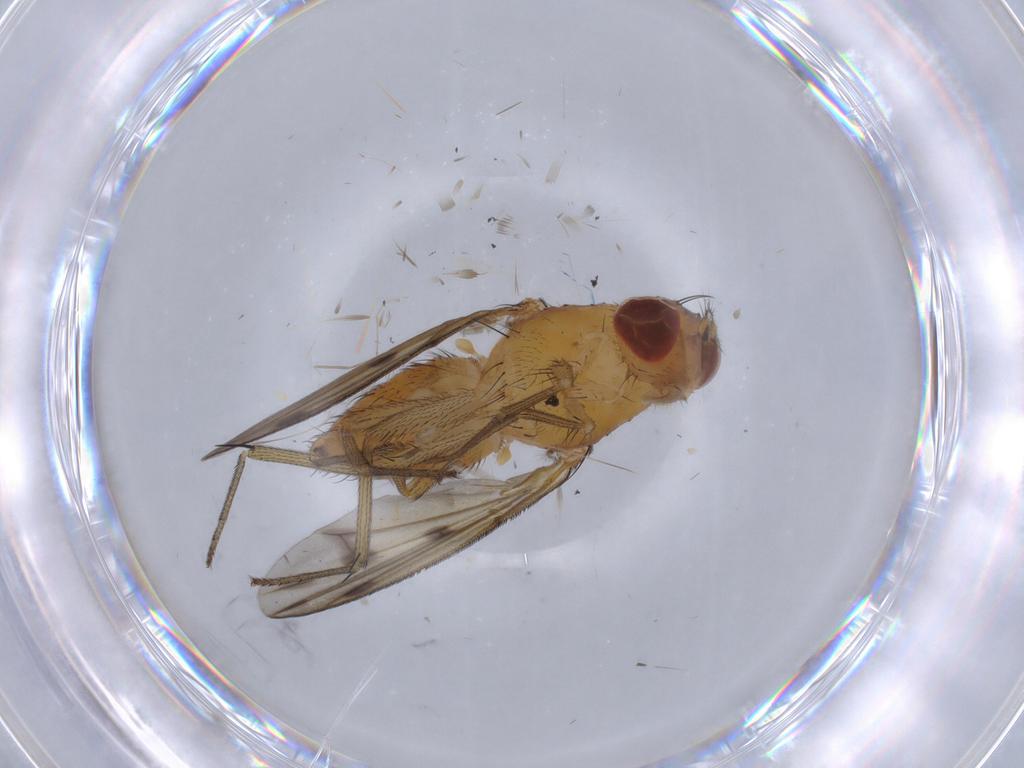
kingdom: Animalia
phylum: Arthropoda
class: Insecta
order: Diptera
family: Lauxaniidae
